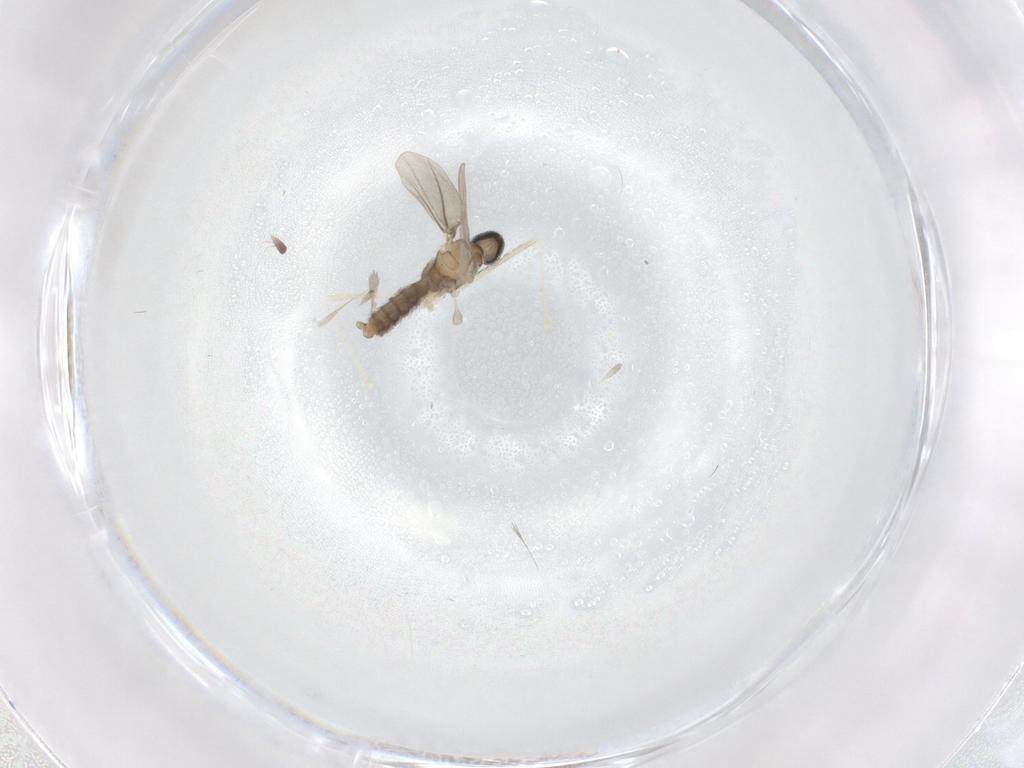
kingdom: Animalia
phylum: Arthropoda
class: Insecta
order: Diptera
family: Cecidomyiidae
